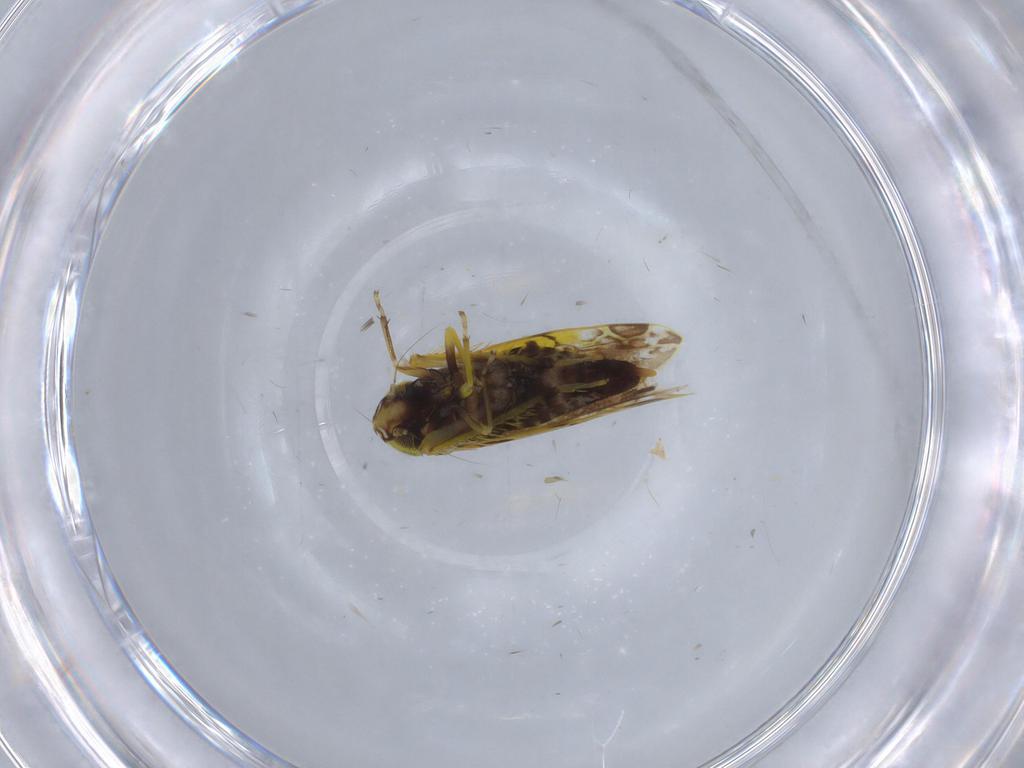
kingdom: Animalia
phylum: Arthropoda
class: Insecta
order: Hemiptera
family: Cicadellidae
